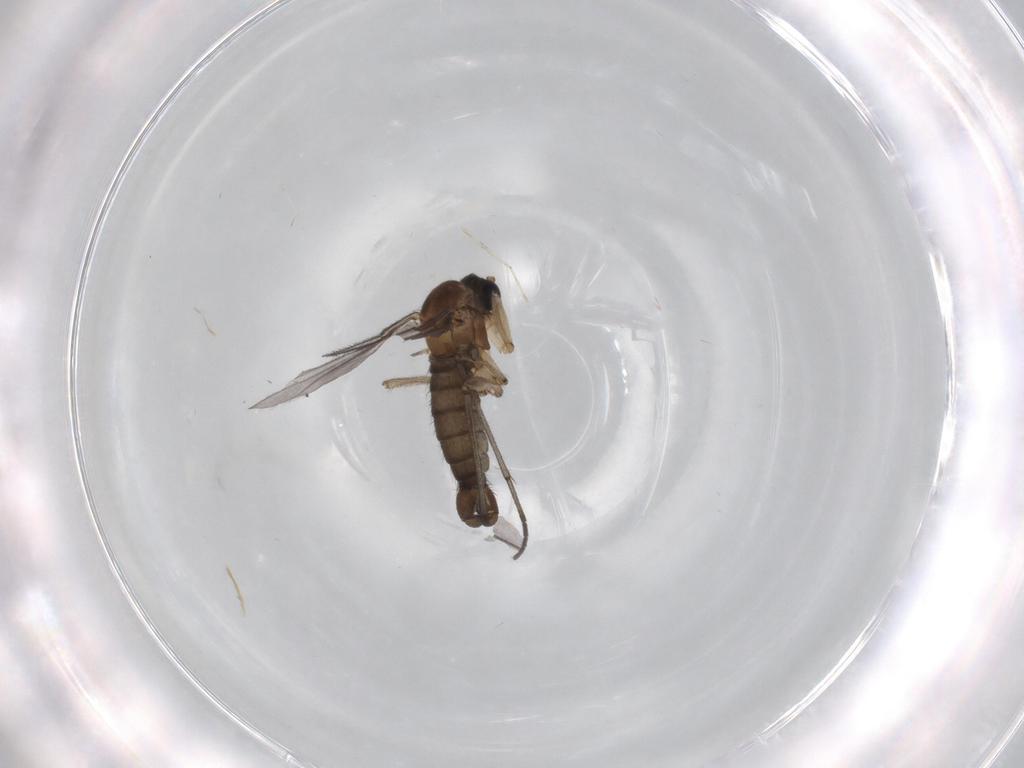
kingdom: Animalia
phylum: Arthropoda
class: Insecta
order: Diptera
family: Sciaridae
